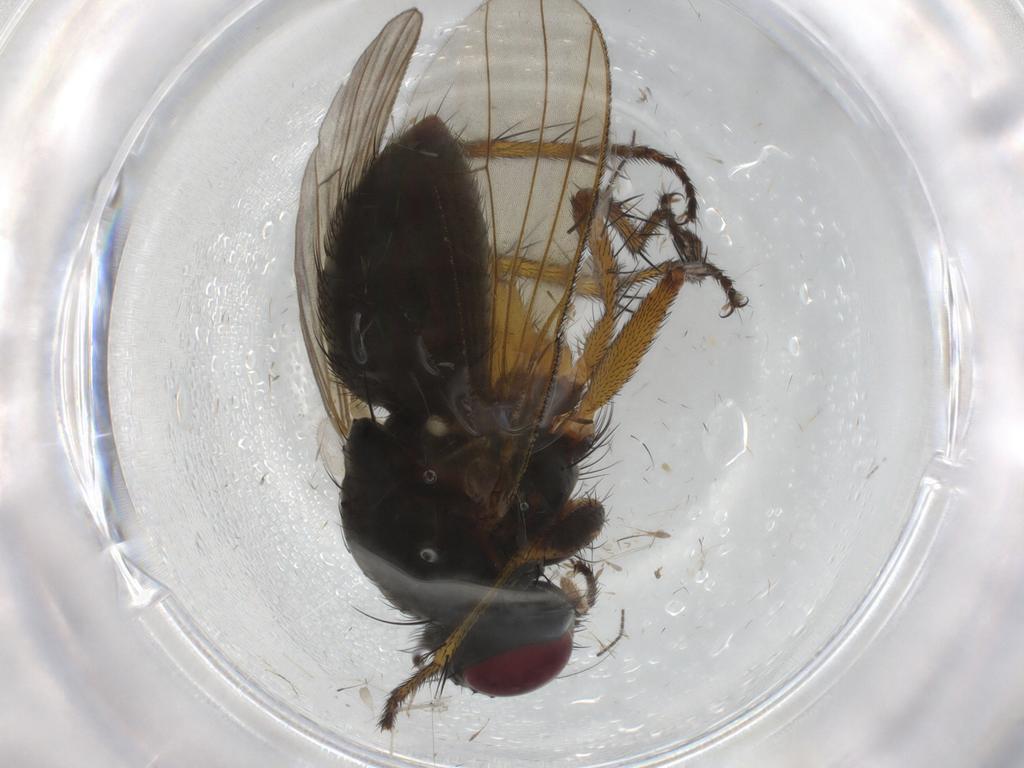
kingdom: Animalia
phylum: Arthropoda
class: Insecta
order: Diptera
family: Muscidae
